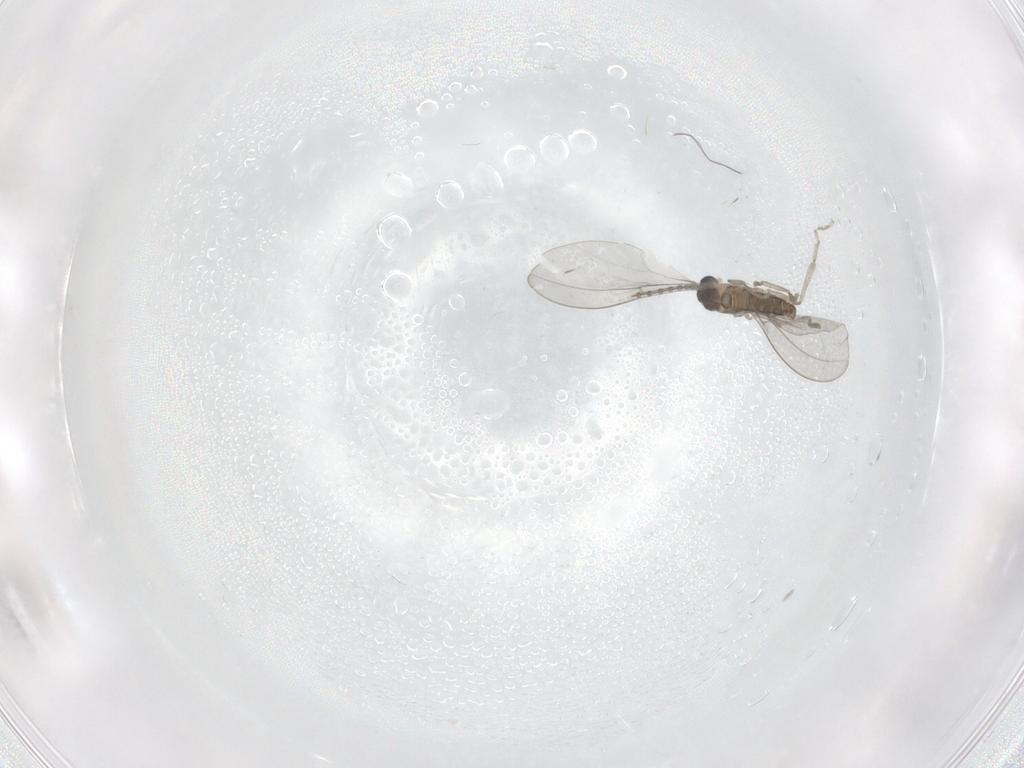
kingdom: Animalia
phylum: Arthropoda
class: Insecta
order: Diptera
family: Cecidomyiidae
